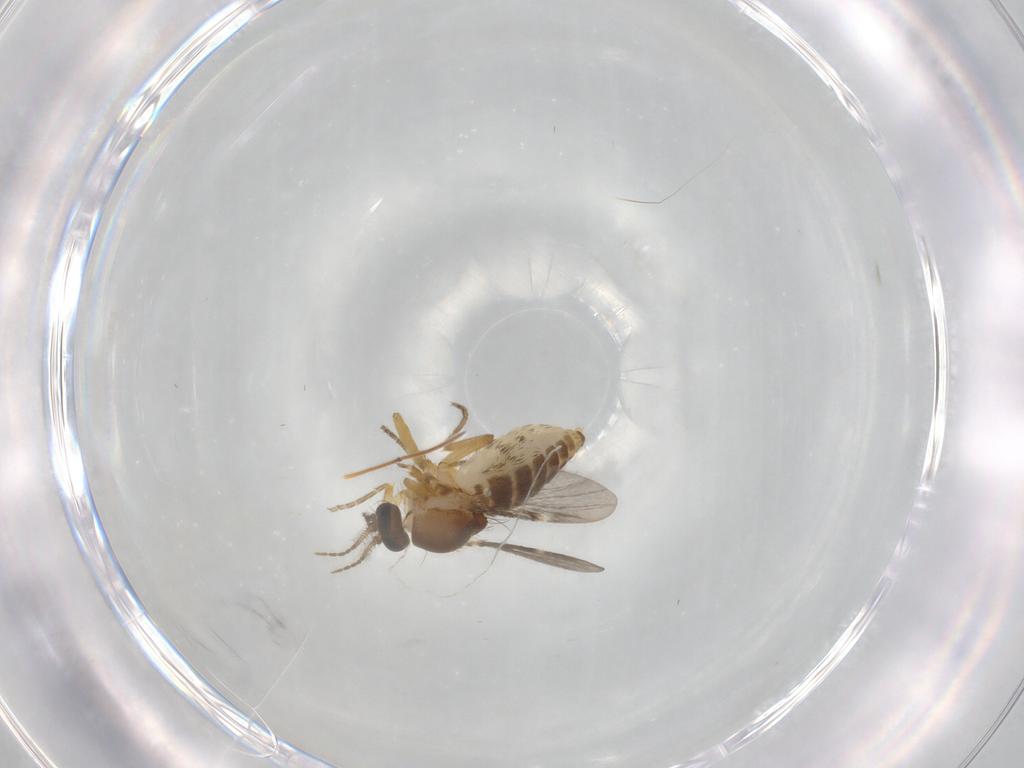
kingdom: Animalia
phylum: Arthropoda
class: Insecta
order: Diptera
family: Ceratopogonidae
